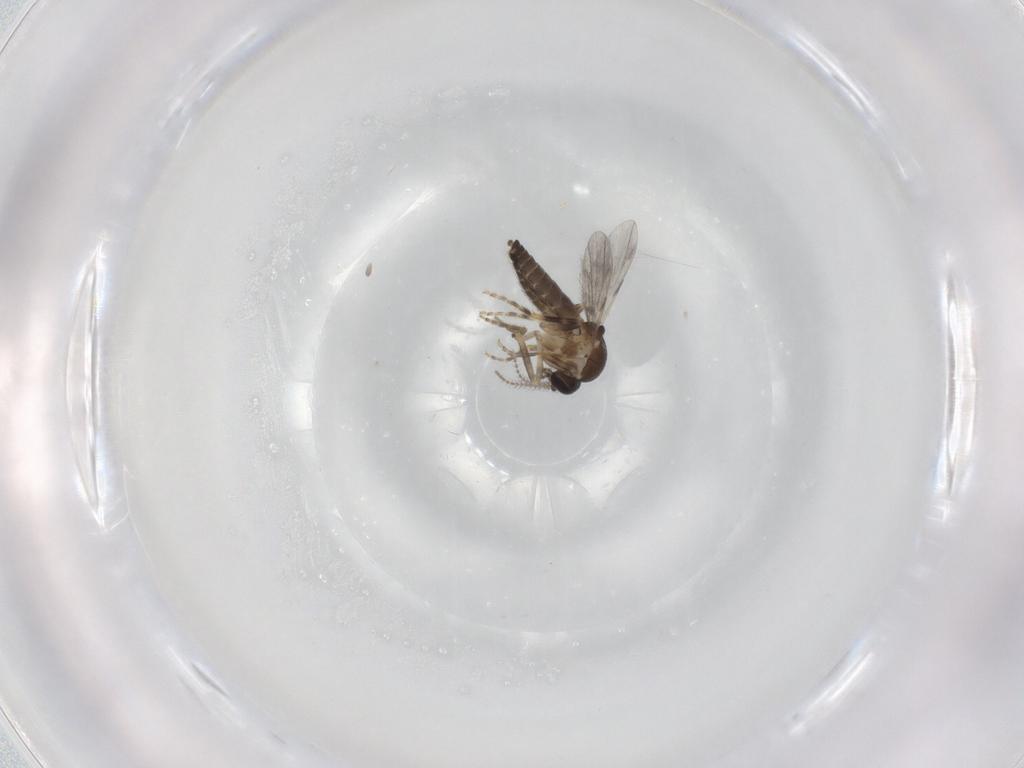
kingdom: Animalia
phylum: Arthropoda
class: Insecta
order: Diptera
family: Ceratopogonidae
